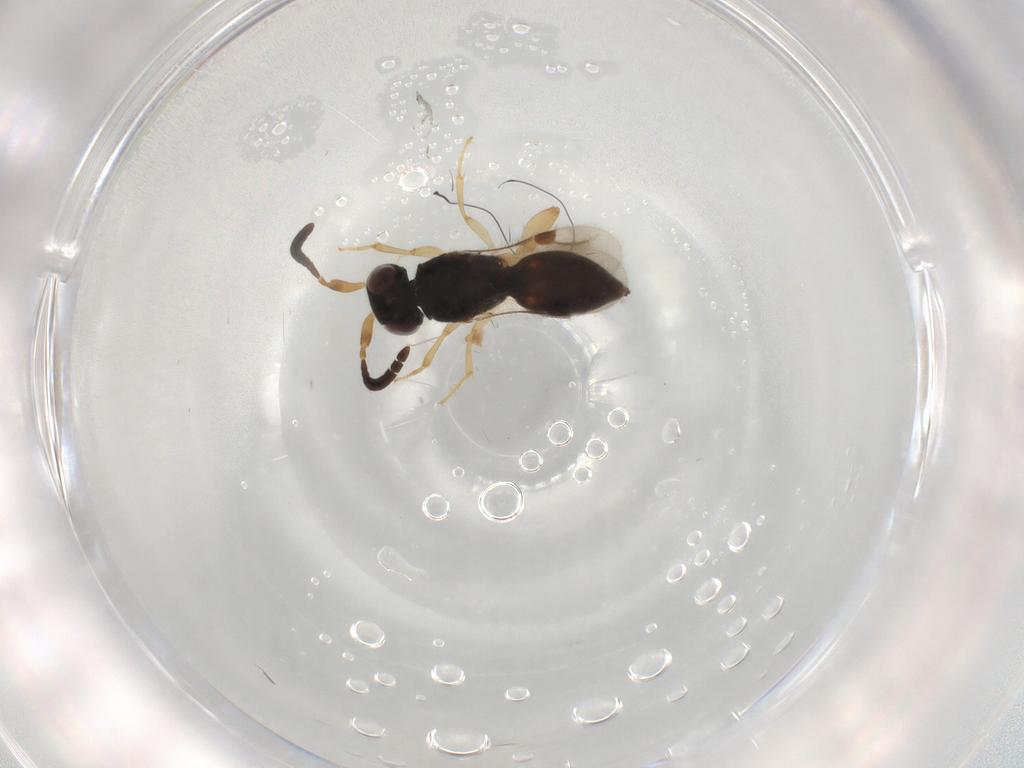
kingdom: Animalia
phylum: Arthropoda
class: Insecta
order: Hymenoptera
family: Megaspilidae
